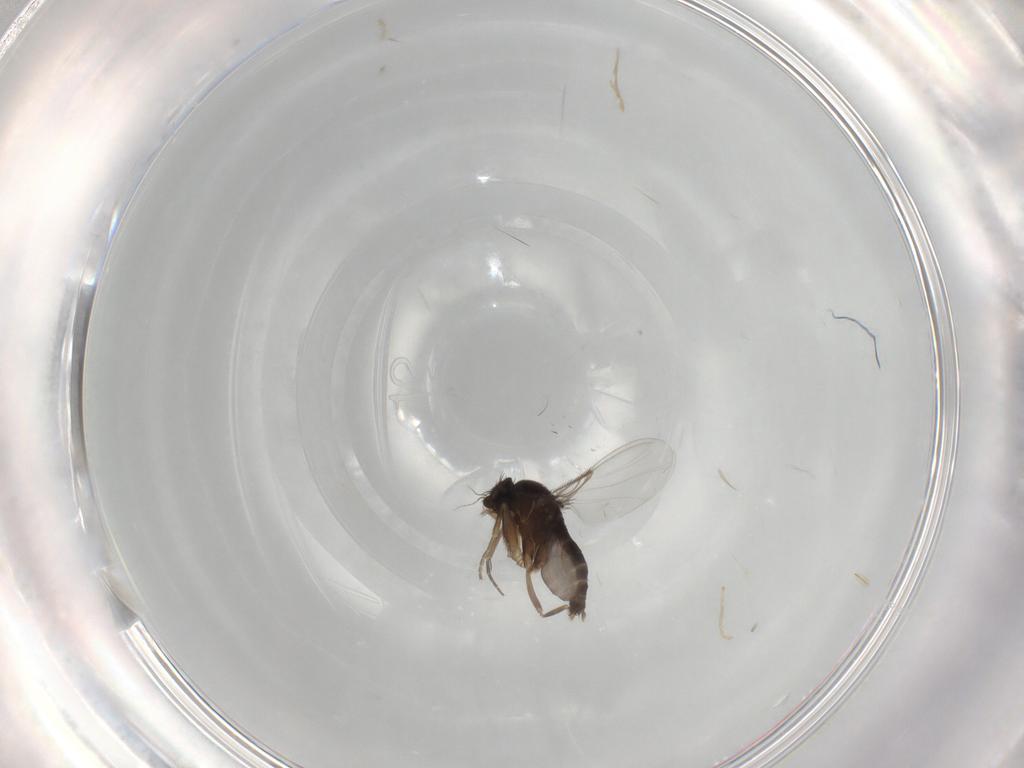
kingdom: Animalia
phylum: Arthropoda
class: Insecta
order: Diptera
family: Phoridae
